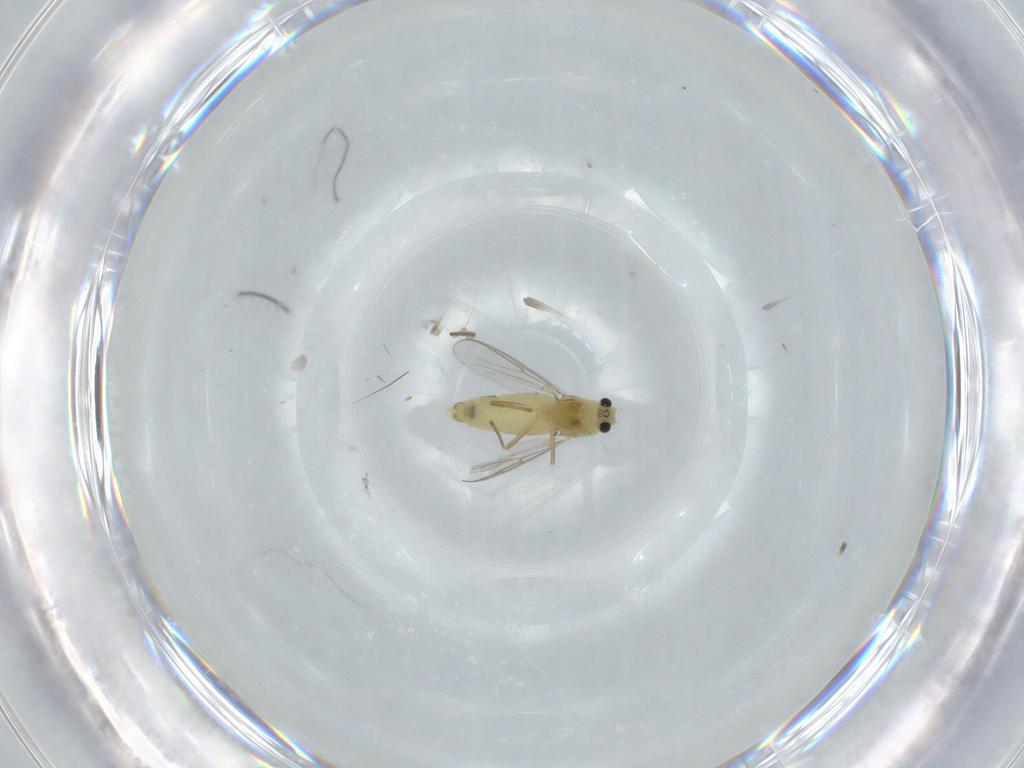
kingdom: Animalia
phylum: Arthropoda
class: Insecta
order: Diptera
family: Chironomidae
